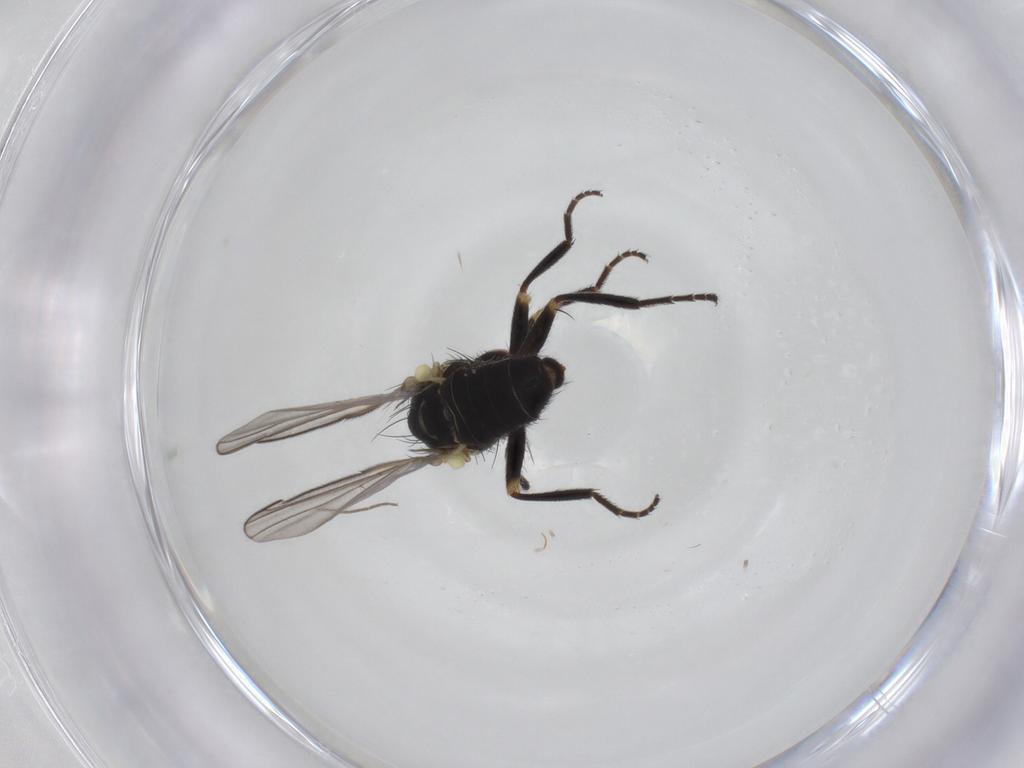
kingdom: Animalia
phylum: Arthropoda
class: Insecta
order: Diptera
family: Agromyzidae
